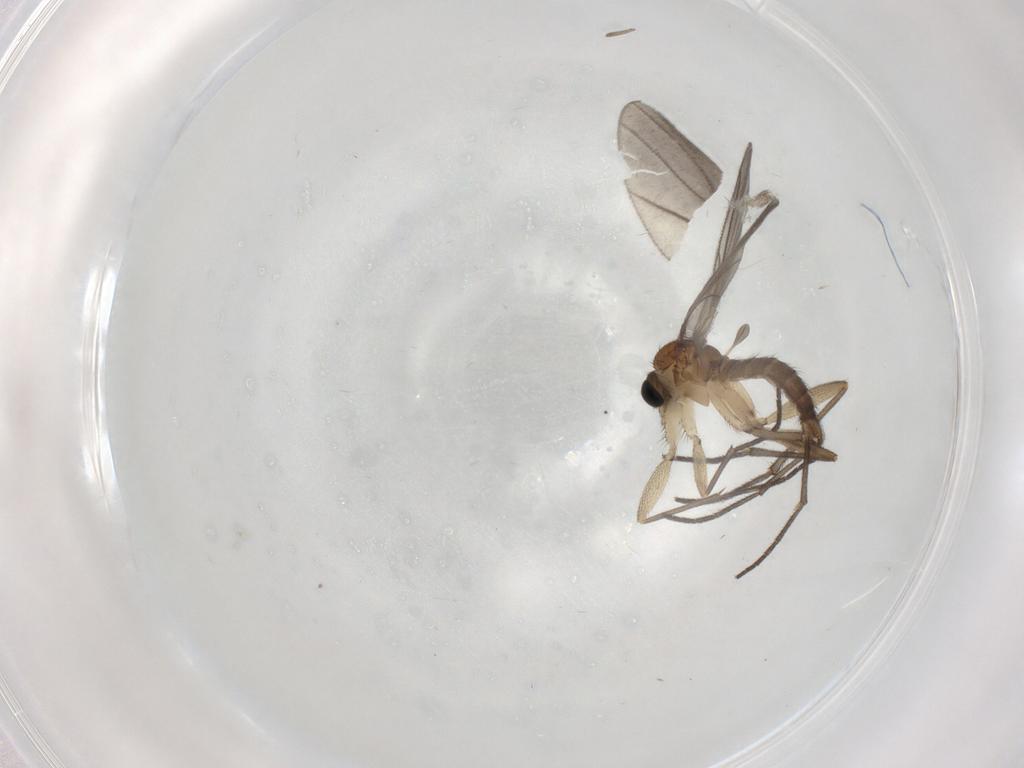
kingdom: Animalia
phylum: Arthropoda
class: Insecta
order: Diptera
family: Sciaridae
